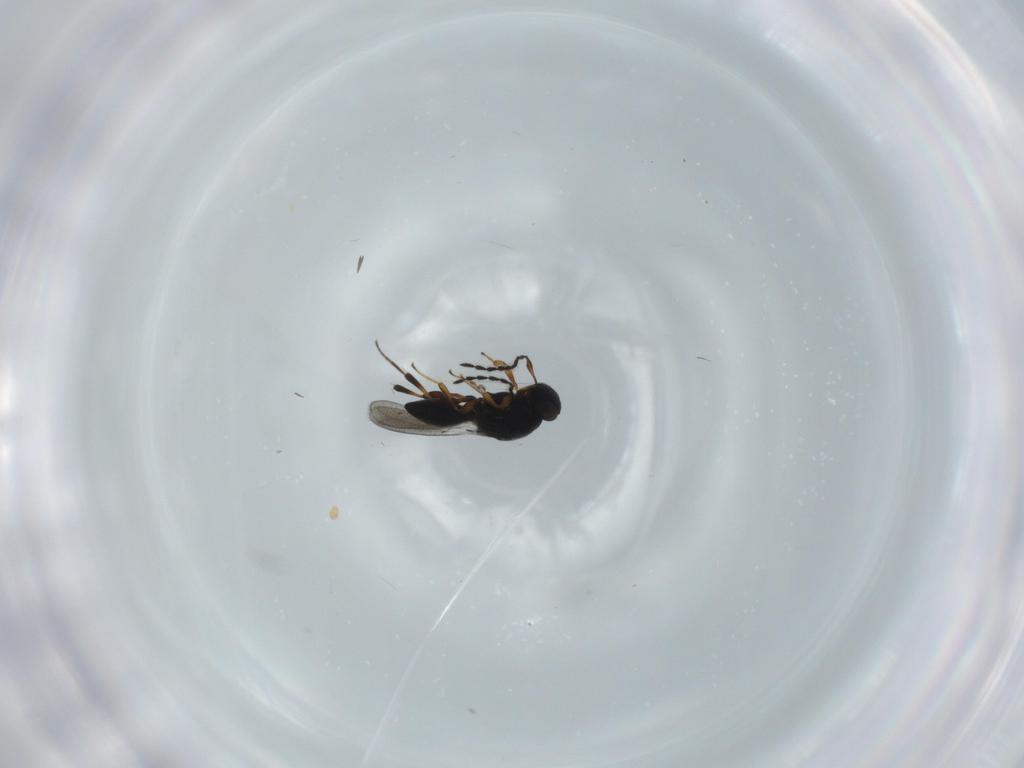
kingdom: Animalia
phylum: Arthropoda
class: Insecta
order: Hymenoptera
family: Platygastridae
